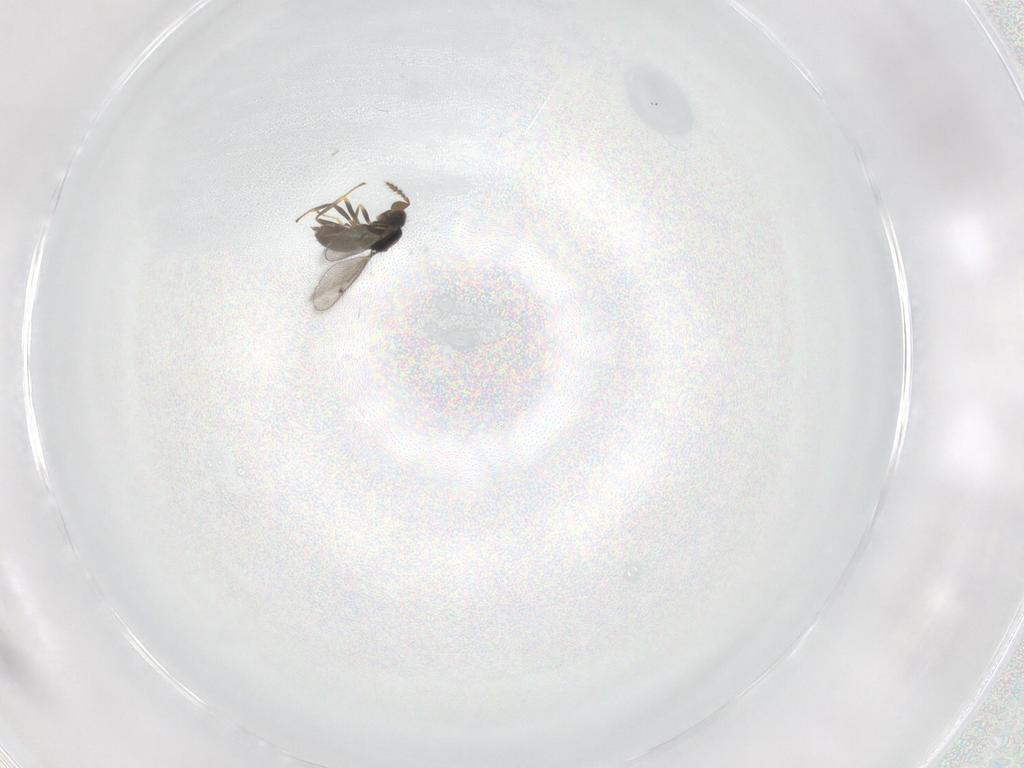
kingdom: Animalia
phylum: Arthropoda
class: Insecta
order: Hymenoptera
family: Eulophidae
